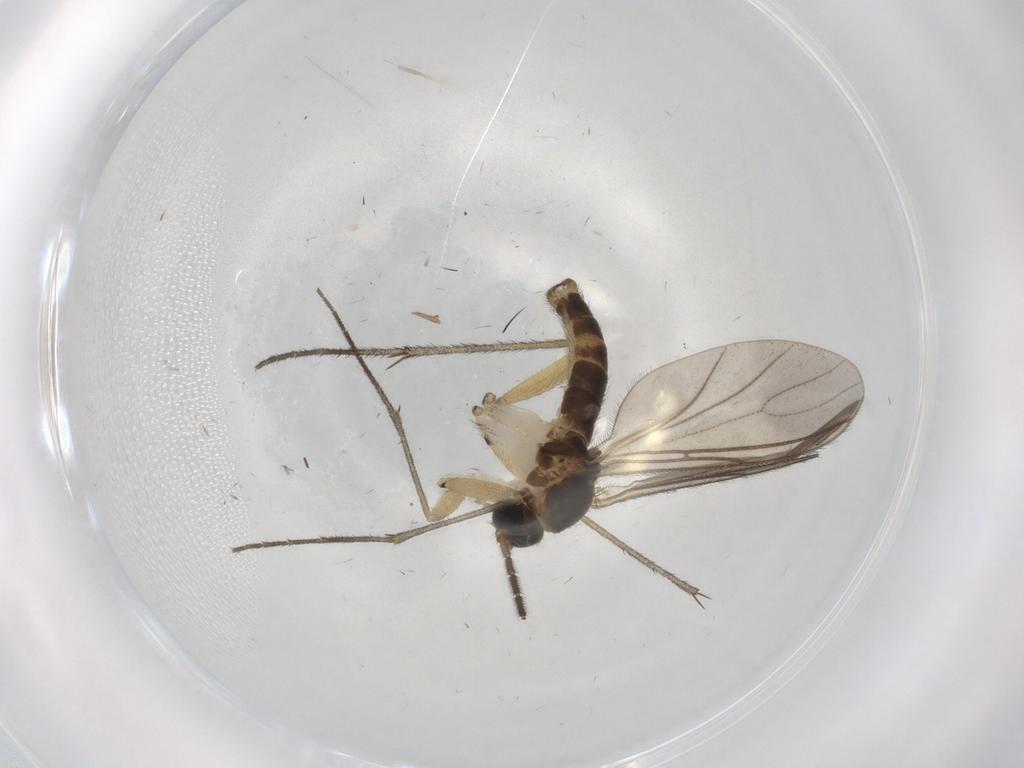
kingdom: Animalia
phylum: Arthropoda
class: Insecta
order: Diptera
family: Sciaridae
